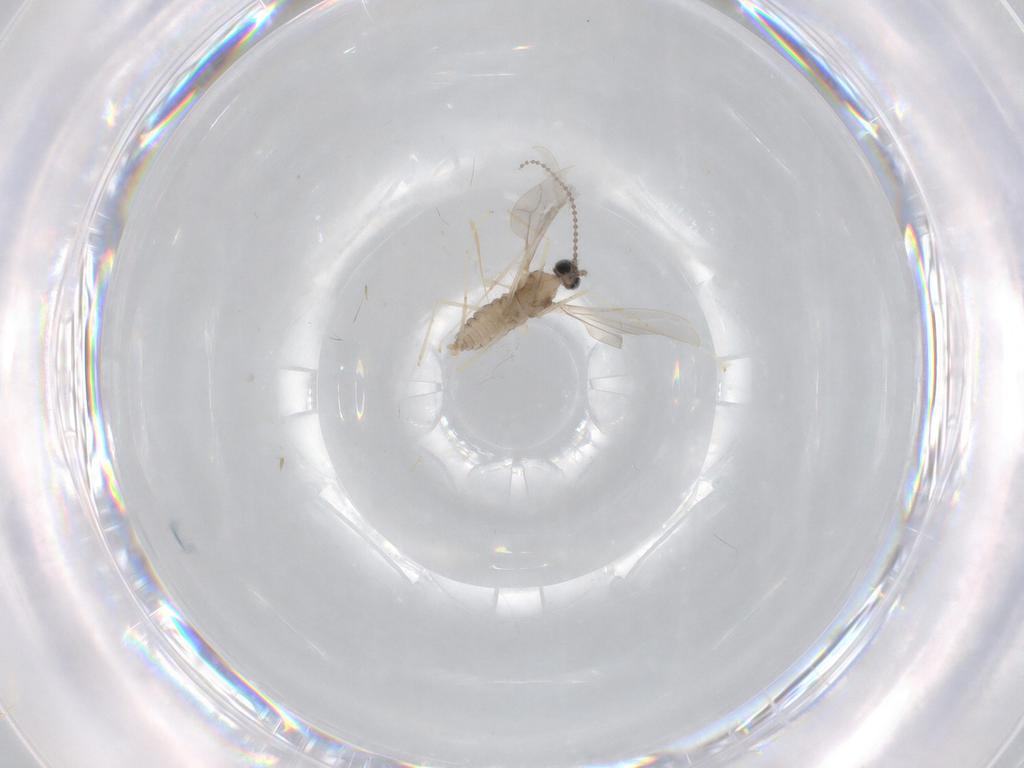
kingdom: Animalia
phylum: Arthropoda
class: Insecta
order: Diptera
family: Cecidomyiidae
